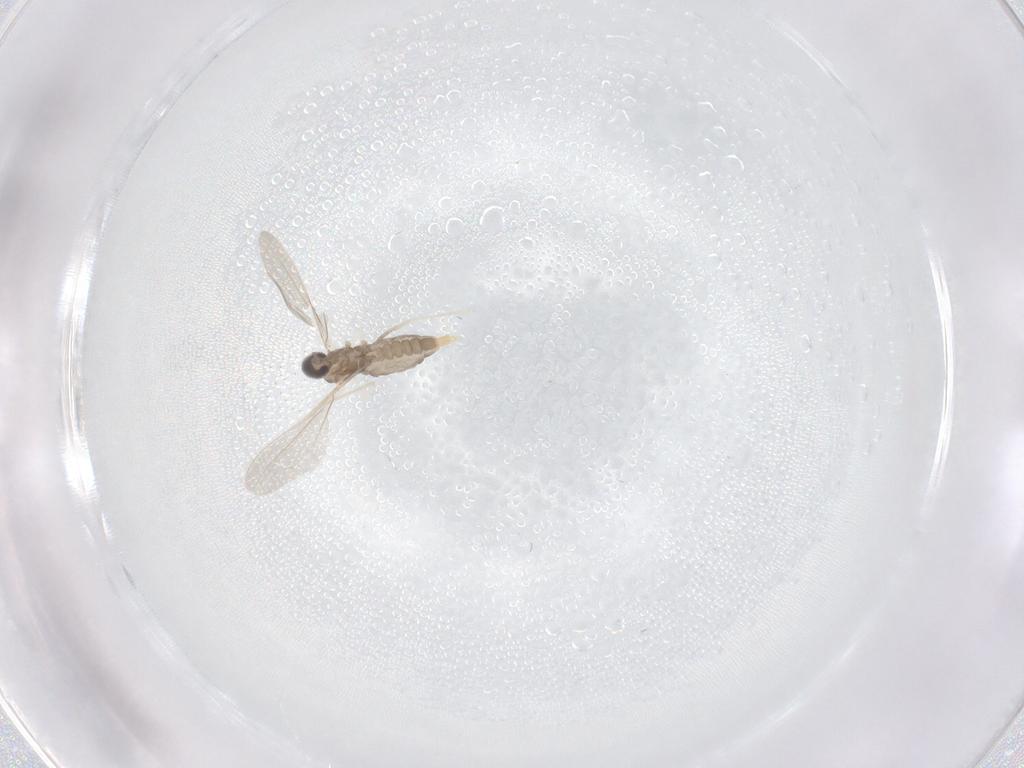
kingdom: Animalia
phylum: Arthropoda
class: Insecta
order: Diptera
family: Cecidomyiidae
